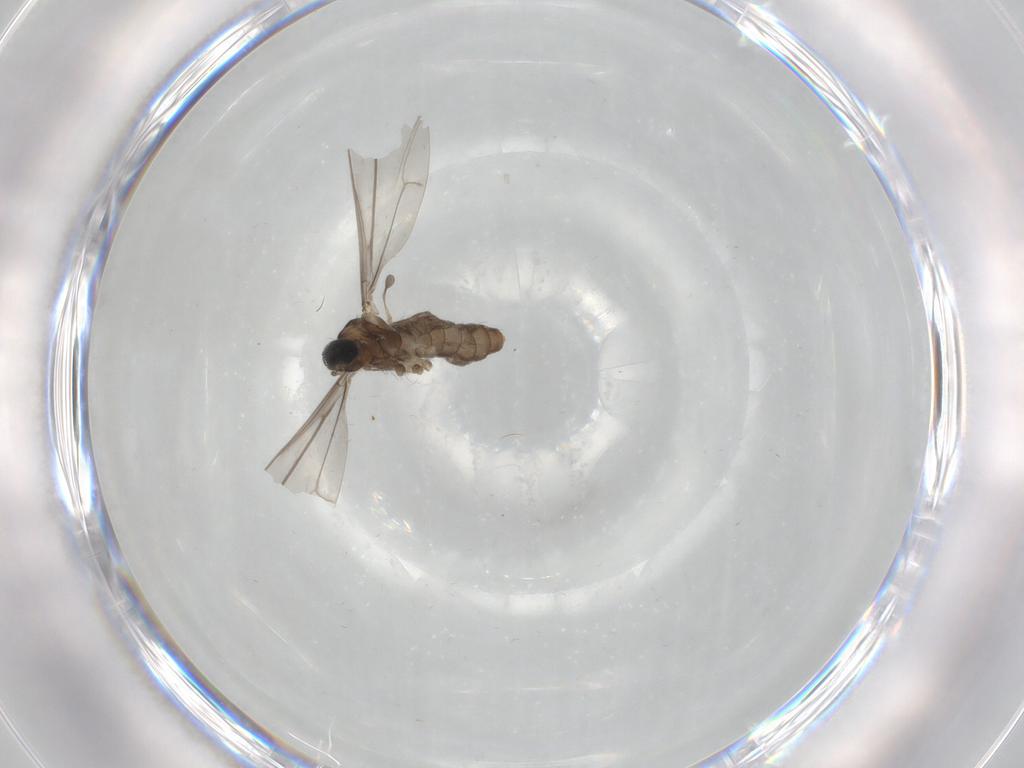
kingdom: Animalia
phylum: Arthropoda
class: Insecta
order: Diptera
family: Cecidomyiidae
